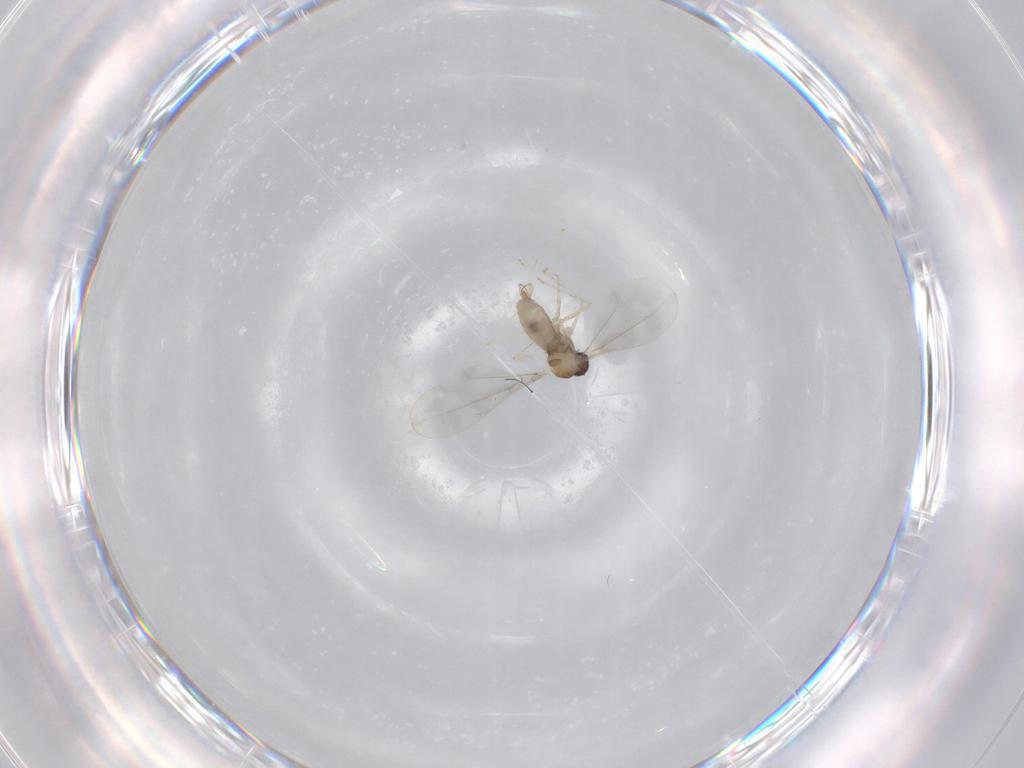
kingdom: Animalia
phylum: Arthropoda
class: Insecta
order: Diptera
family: Cecidomyiidae
